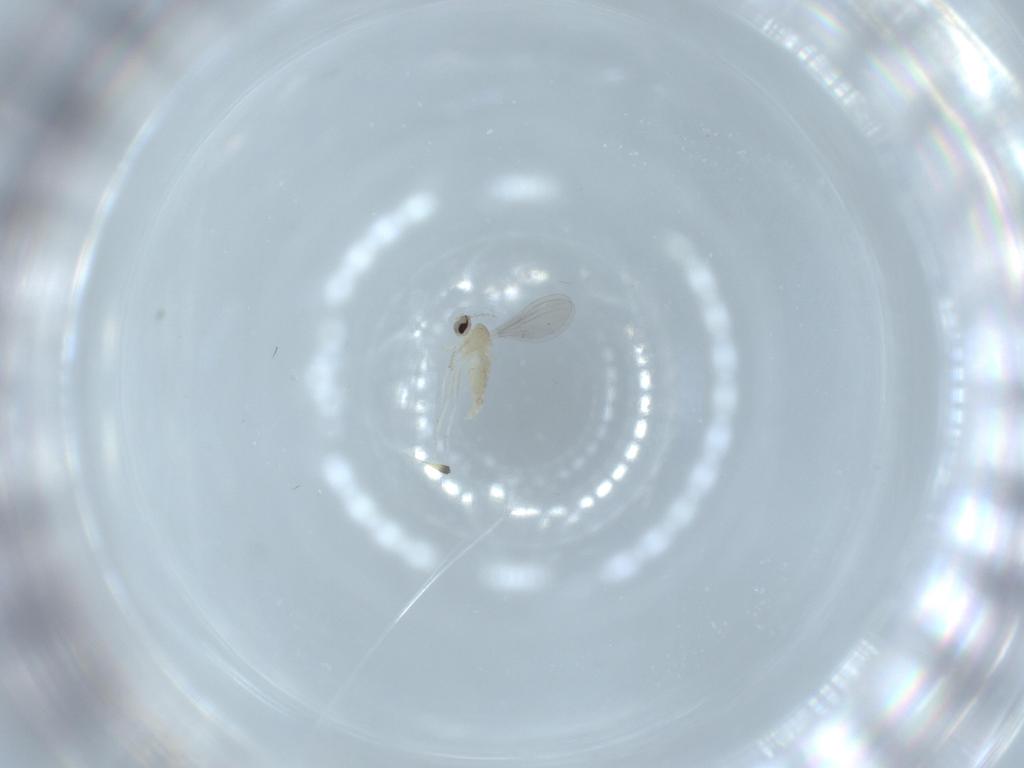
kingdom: Animalia
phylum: Arthropoda
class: Insecta
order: Diptera
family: Cecidomyiidae
